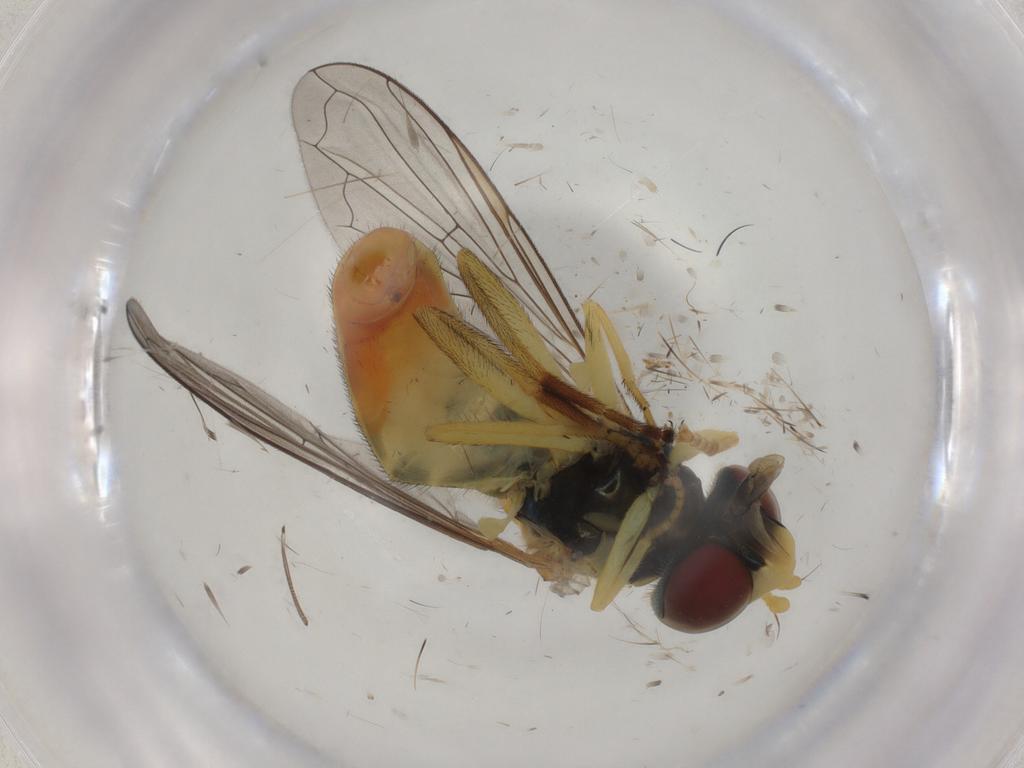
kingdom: Animalia
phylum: Arthropoda
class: Insecta
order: Diptera
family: Syrphidae
